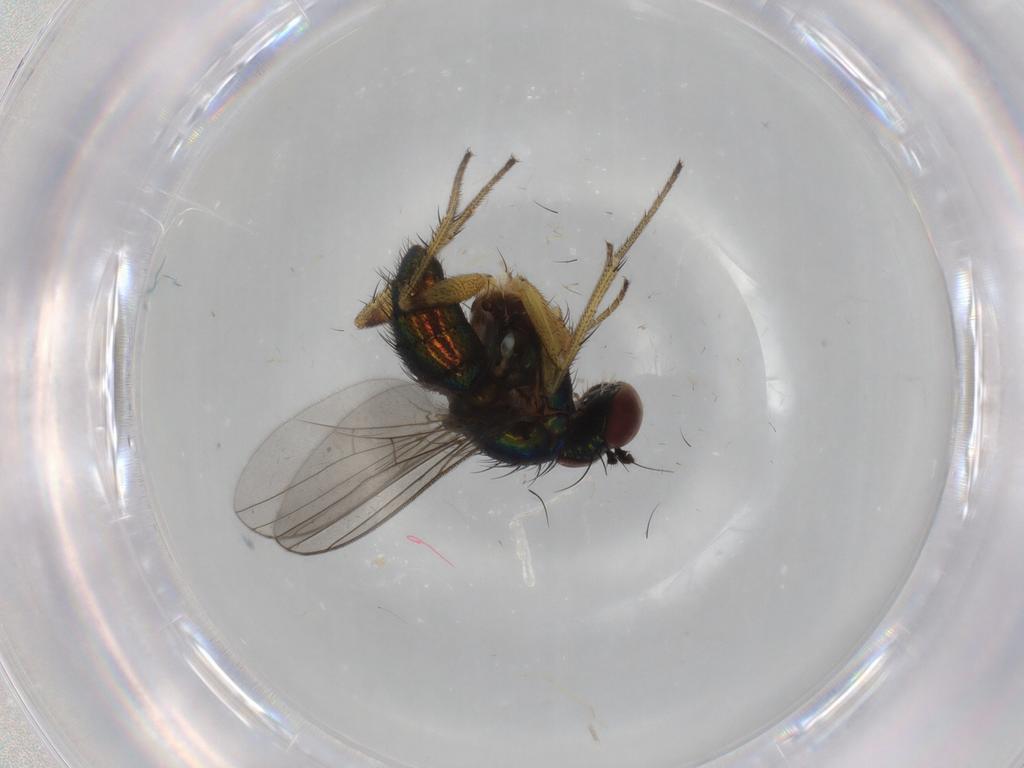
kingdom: Animalia
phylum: Arthropoda
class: Insecta
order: Diptera
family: Dolichopodidae
